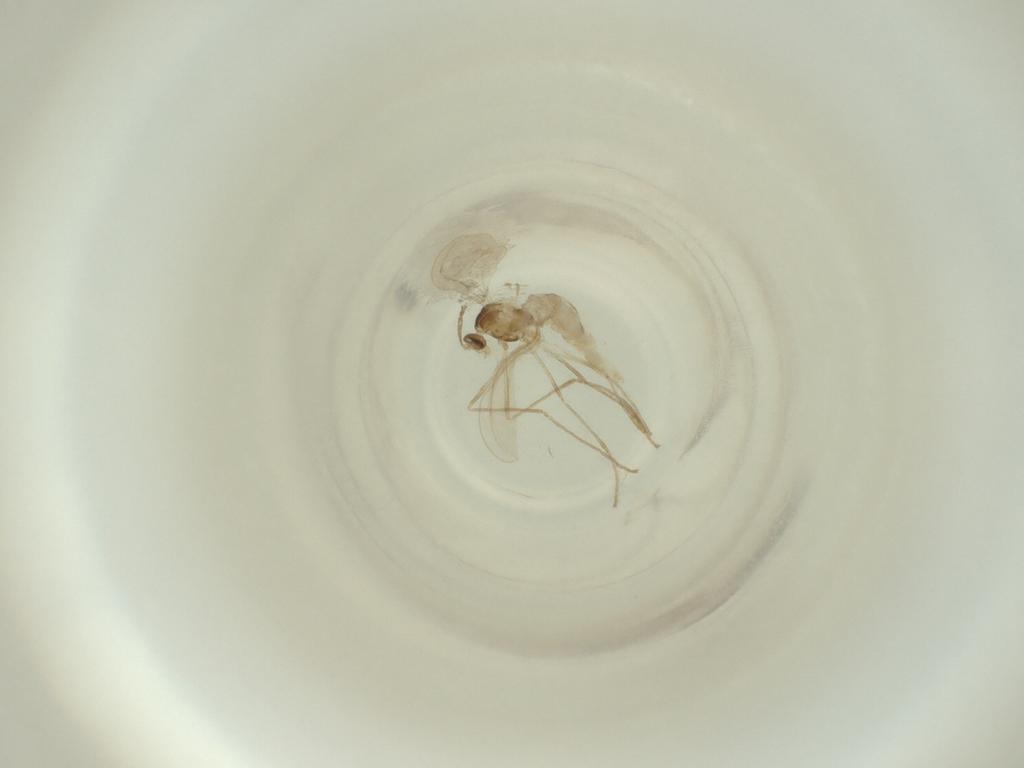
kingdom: Animalia
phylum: Arthropoda
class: Insecta
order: Diptera
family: Cecidomyiidae
